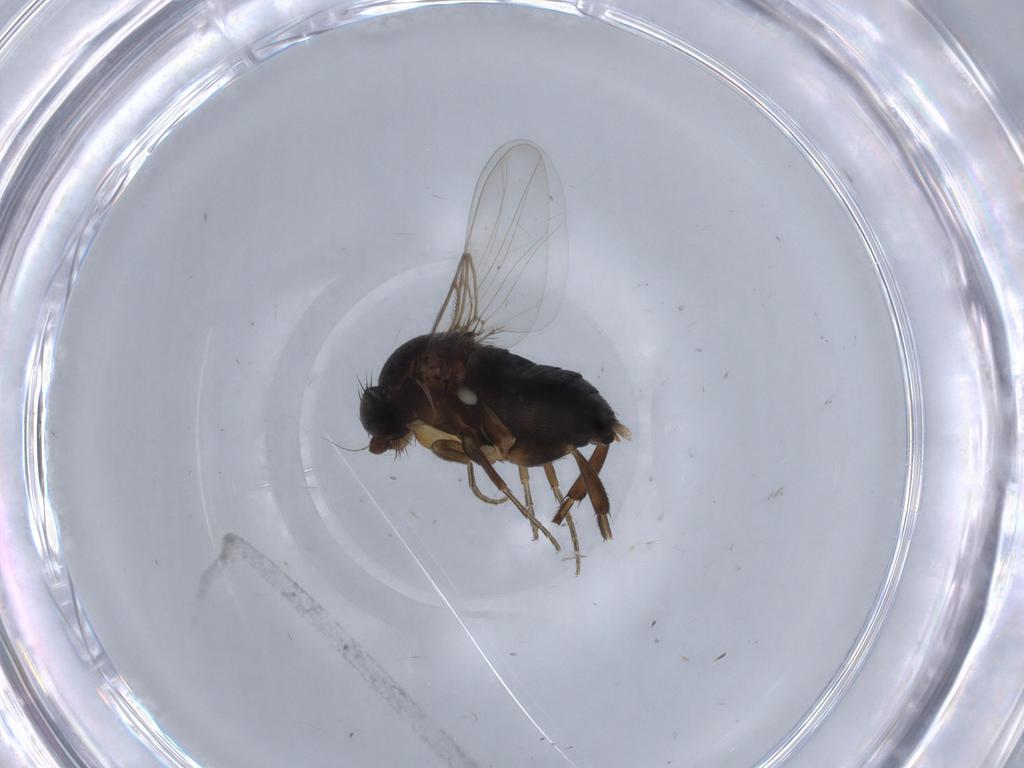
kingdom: Animalia
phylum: Arthropoda
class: Insecta
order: Diptera
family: Phoridae
